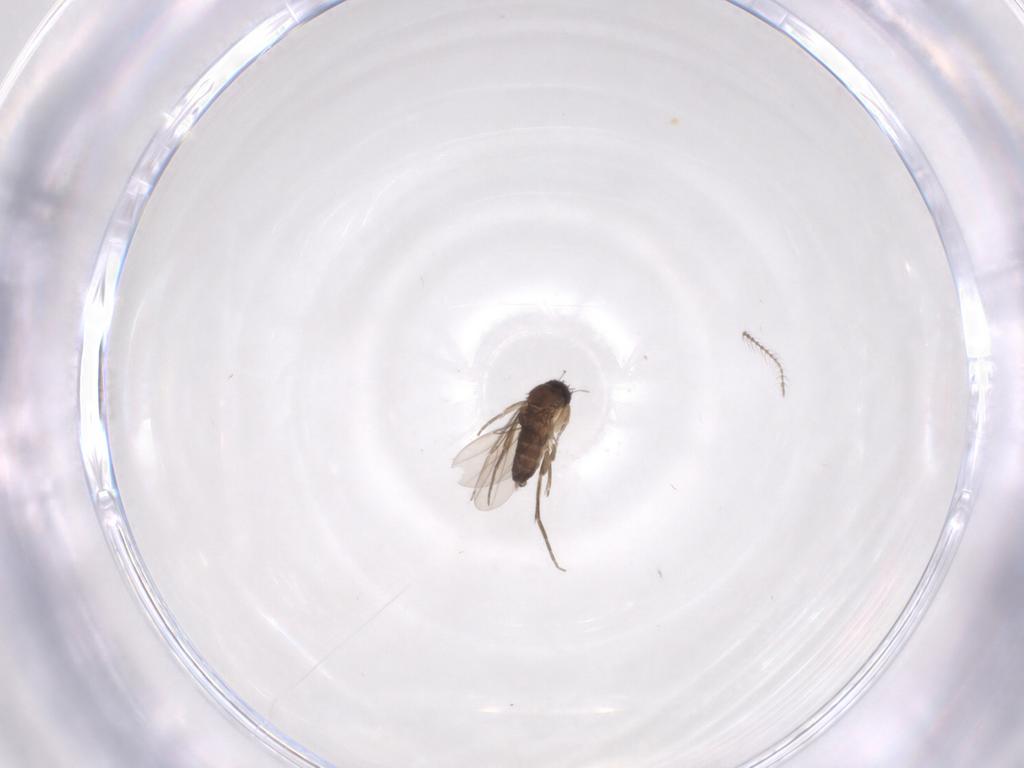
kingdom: Animalia
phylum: Arthropoda
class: Insecta
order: Diptera
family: Phoridae
